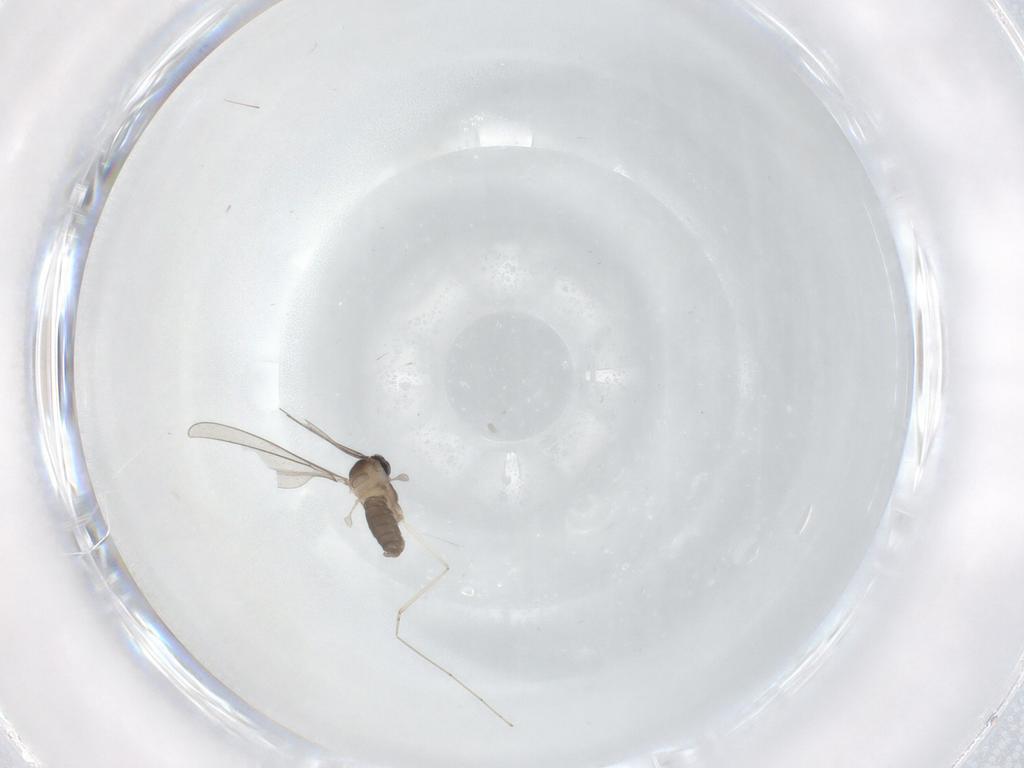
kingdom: Animalia
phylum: Arthropoda
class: Insecta
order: Diptera
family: Cecidomyiidae
